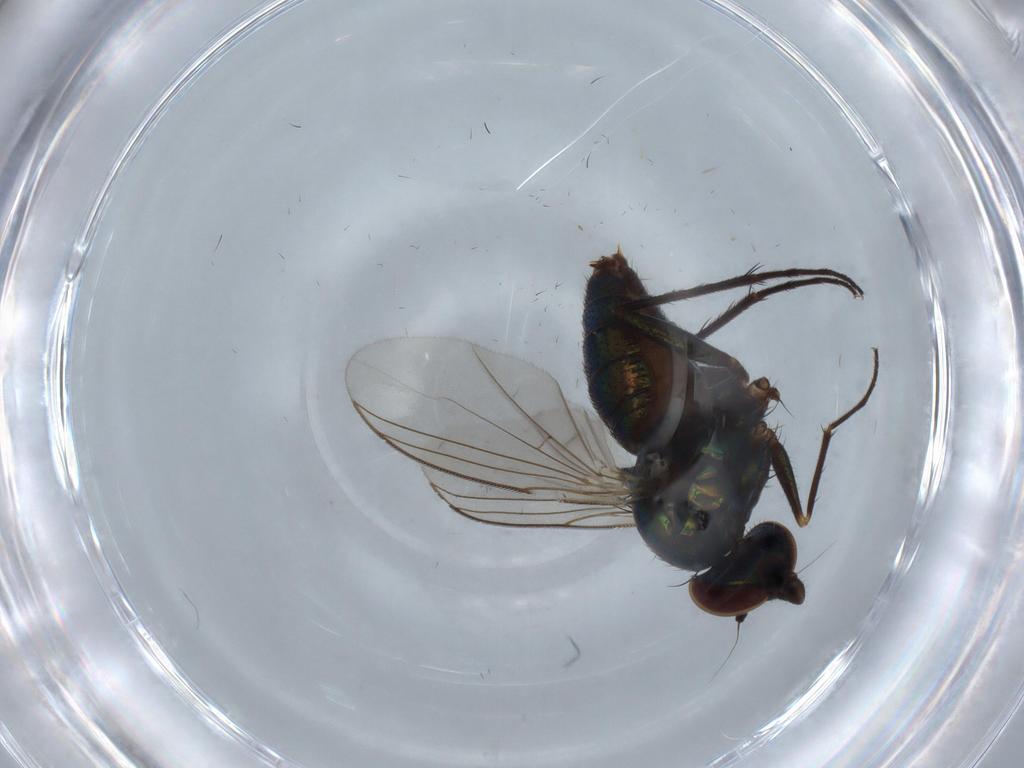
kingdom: Animalia
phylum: Arthropoda
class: Insecta
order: Diptera
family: Dolichopodidae
